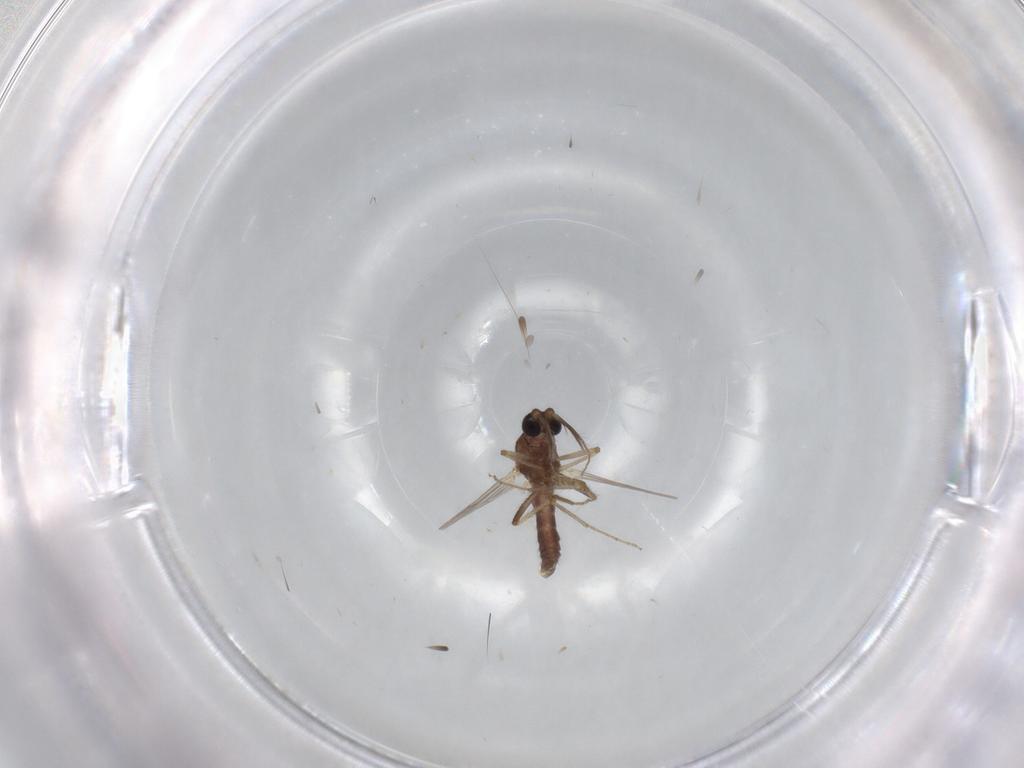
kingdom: Animalia
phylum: Arthropoda
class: Insecta
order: Diptera
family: Ceratopogonidae
